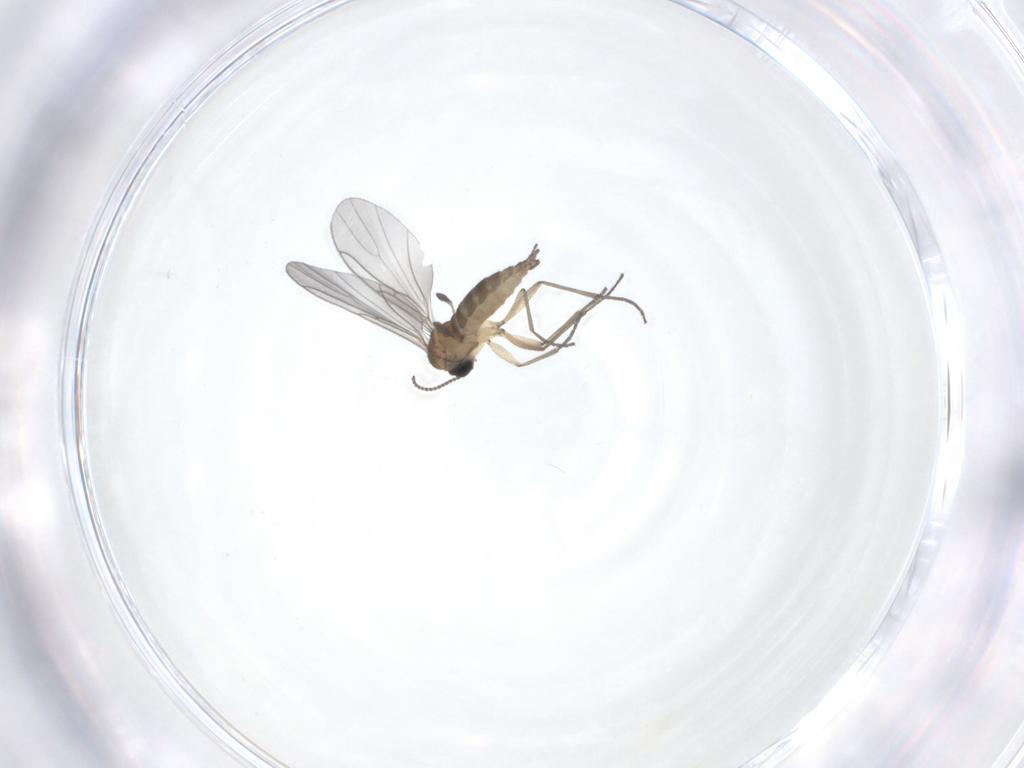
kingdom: Animalia
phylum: Arthropoda
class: Insecta
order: Diptera
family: Sciaridae
